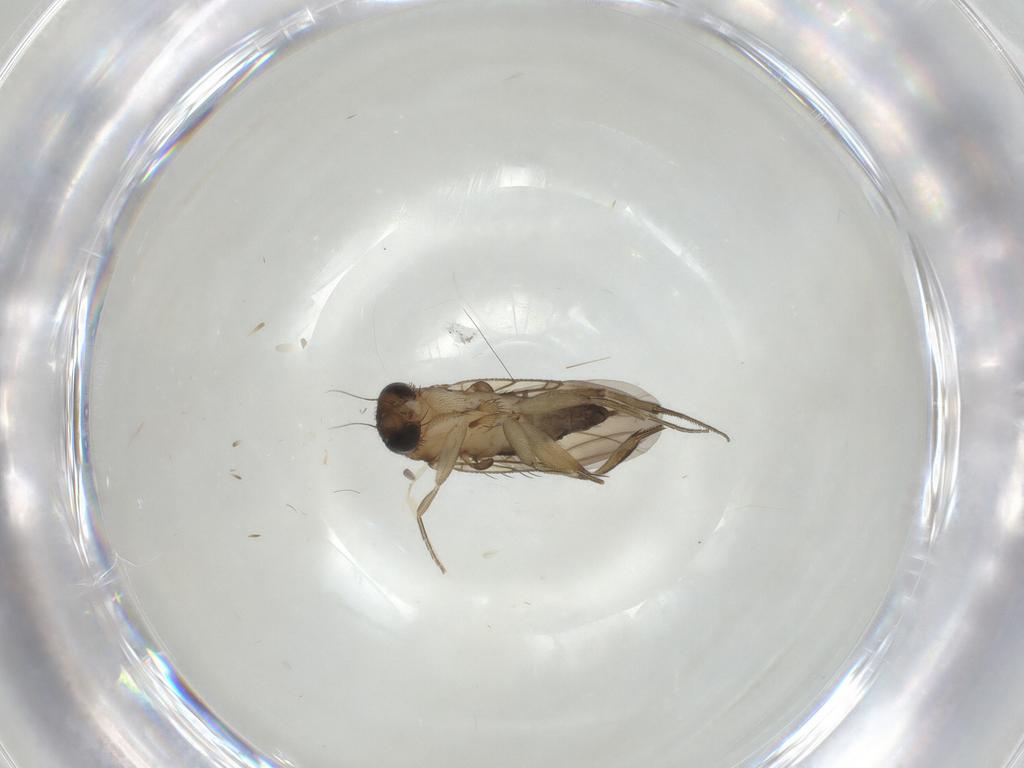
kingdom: Animalia
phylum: Arthropoda
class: Insecta
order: Diptera
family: Phoridae
